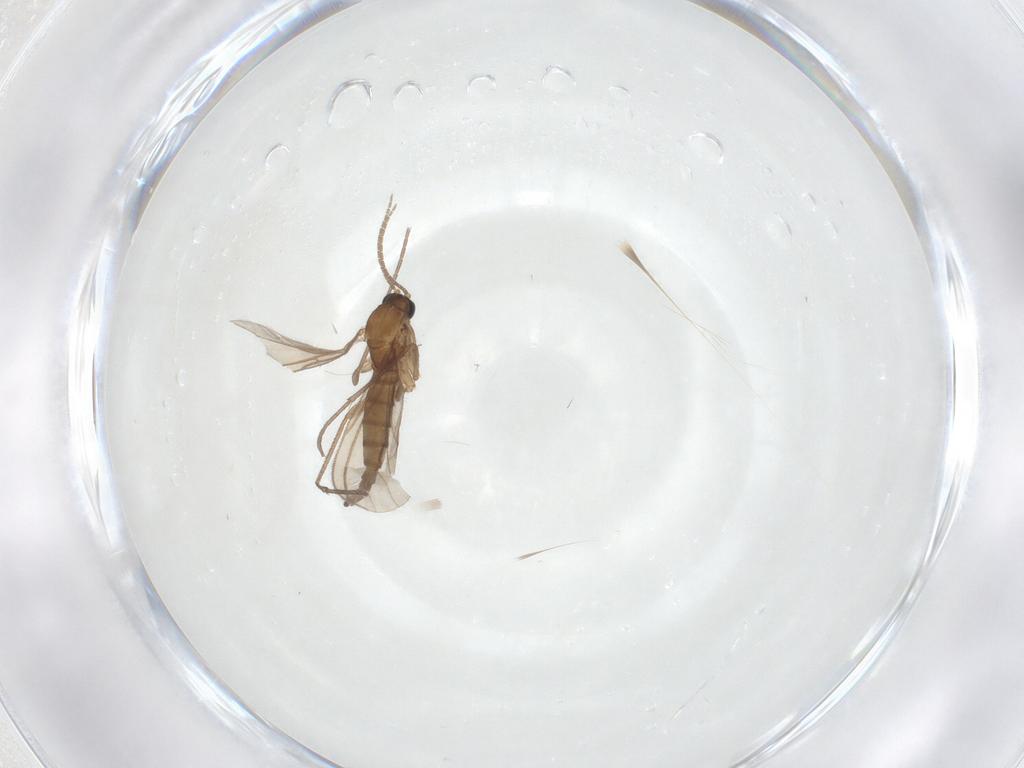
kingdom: Animalia
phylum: Arthropoda
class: Insecta
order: Diptera
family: Sciaridae
